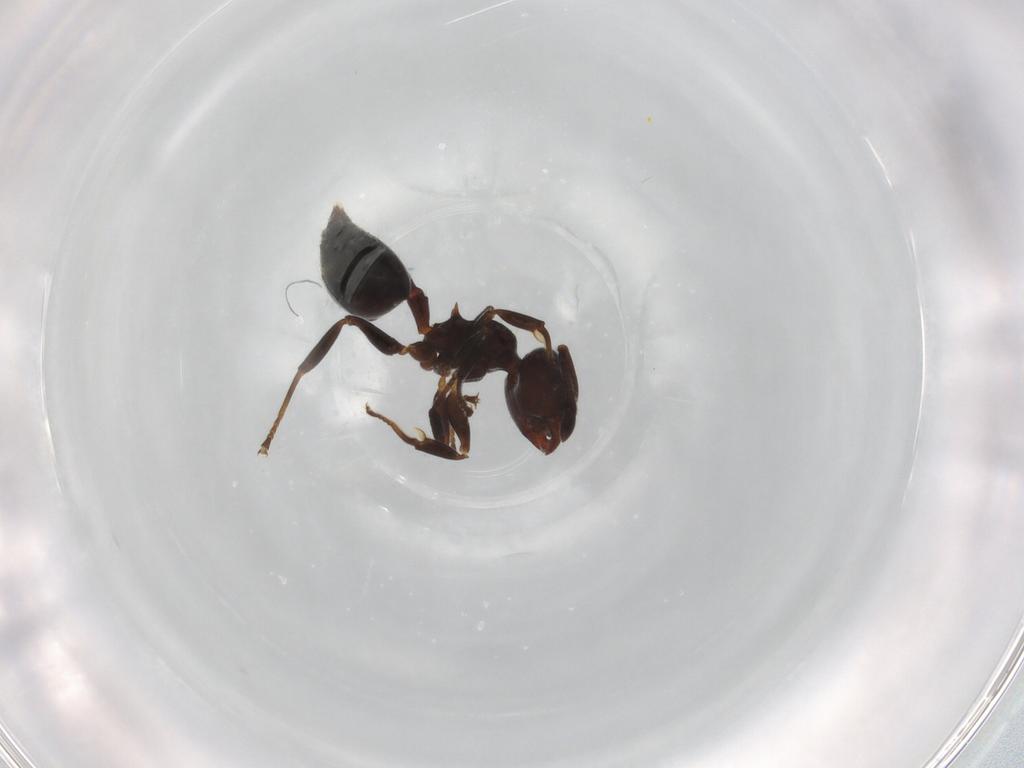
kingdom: Animalia
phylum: Arthropoda
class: Insecta
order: Hymenoptera
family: Formicidae
